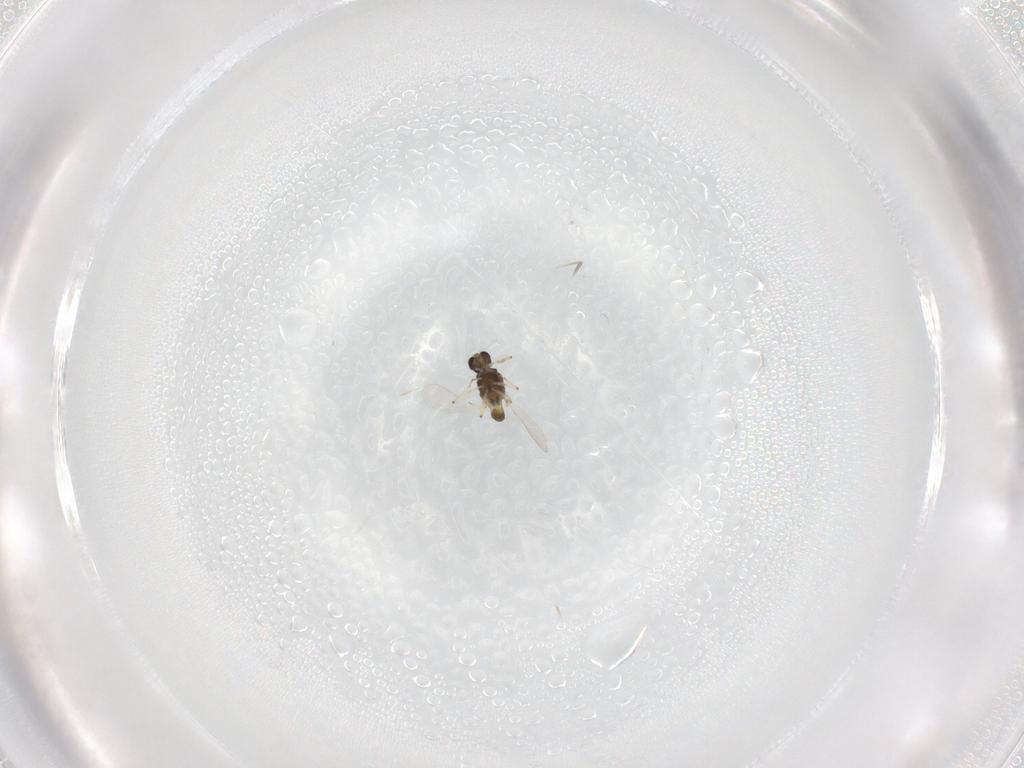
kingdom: Animalia
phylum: Arthropoda
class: Insecta
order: Diptera
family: Chironomidae
